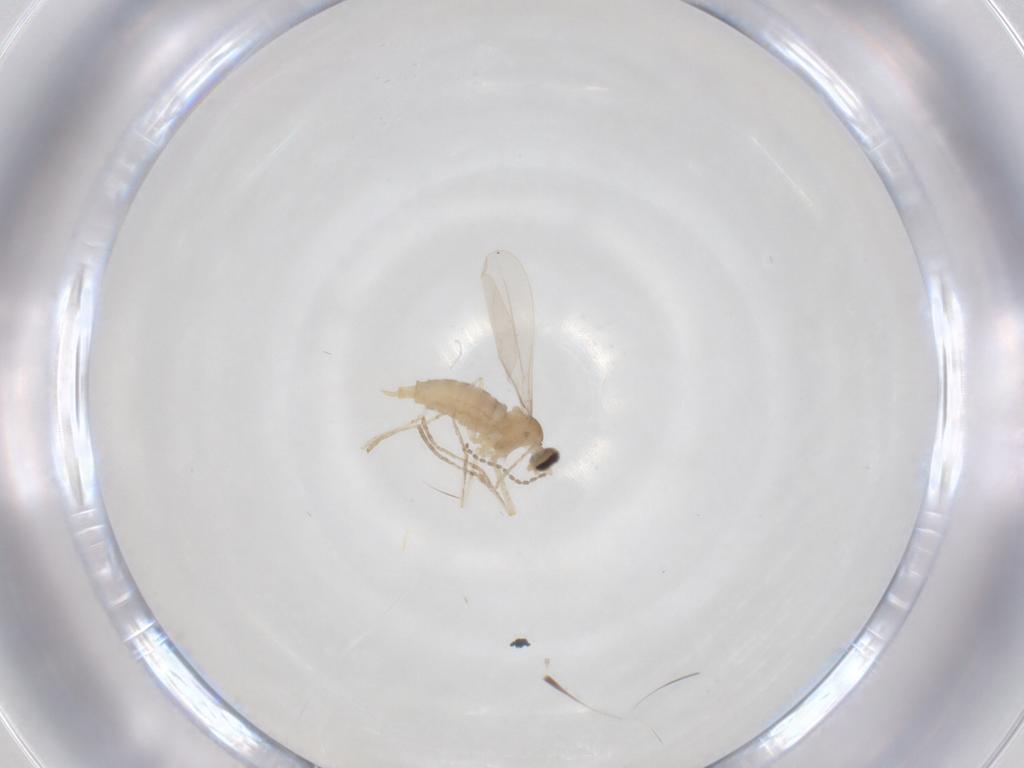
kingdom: Animalia
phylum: Arthropoda
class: Insecta
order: Diptera
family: Cecidomyiidae
